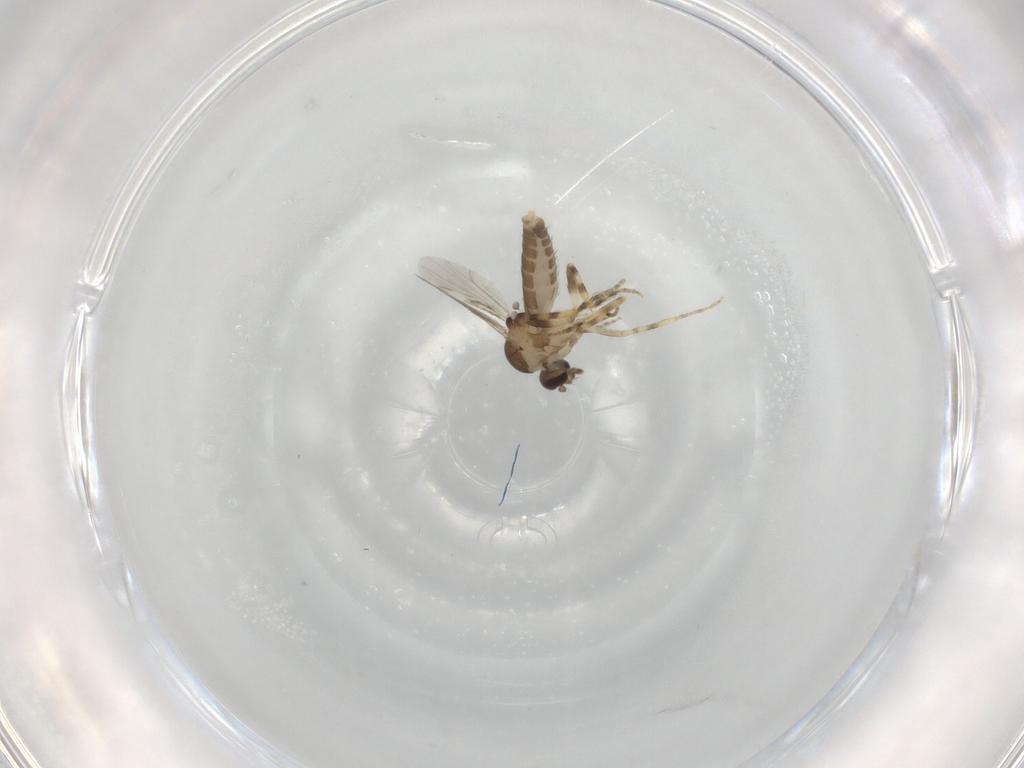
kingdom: Animalia
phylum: Arthropoda
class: Insecta
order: Diptera
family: Ceratopogonidae
